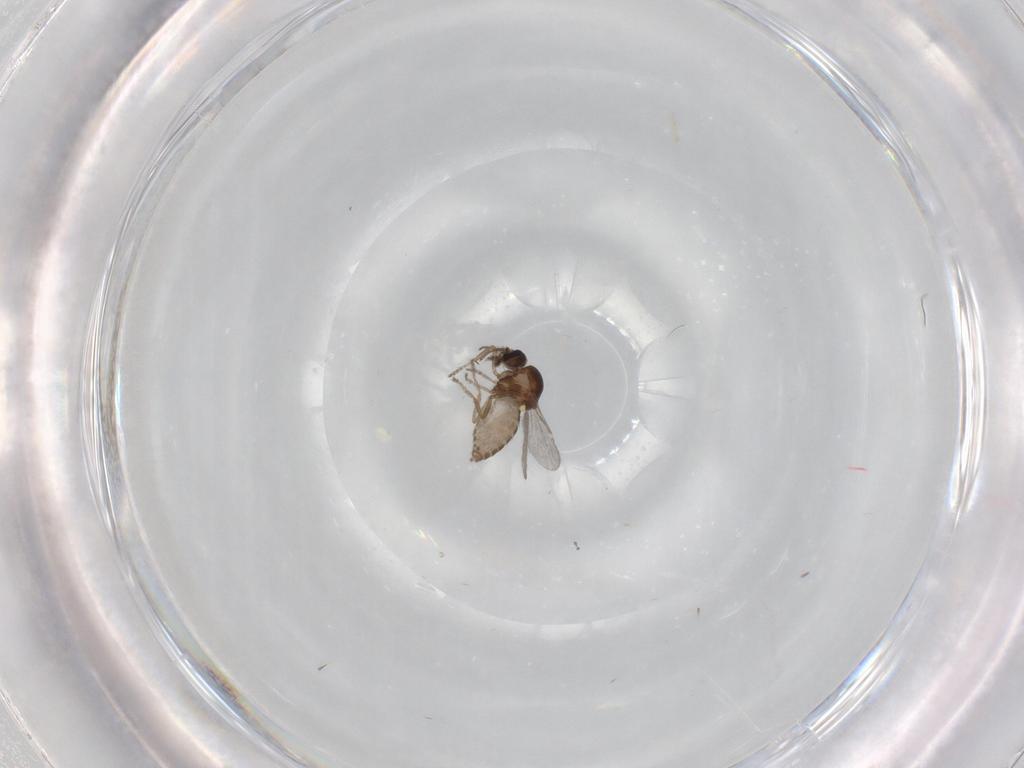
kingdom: Animalia
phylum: Arthropoda
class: Insecta
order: Diptera
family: Ceratopogonidae
